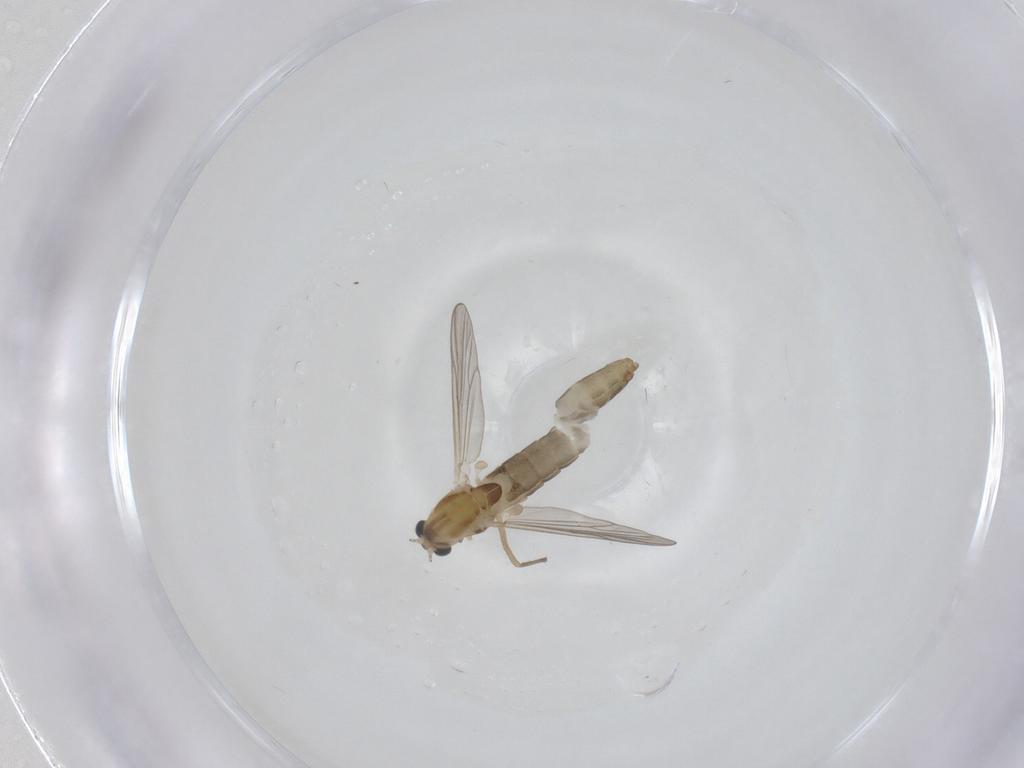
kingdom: Animalia
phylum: Arthropoda
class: Insecta
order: Diptera
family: Chironomidae
